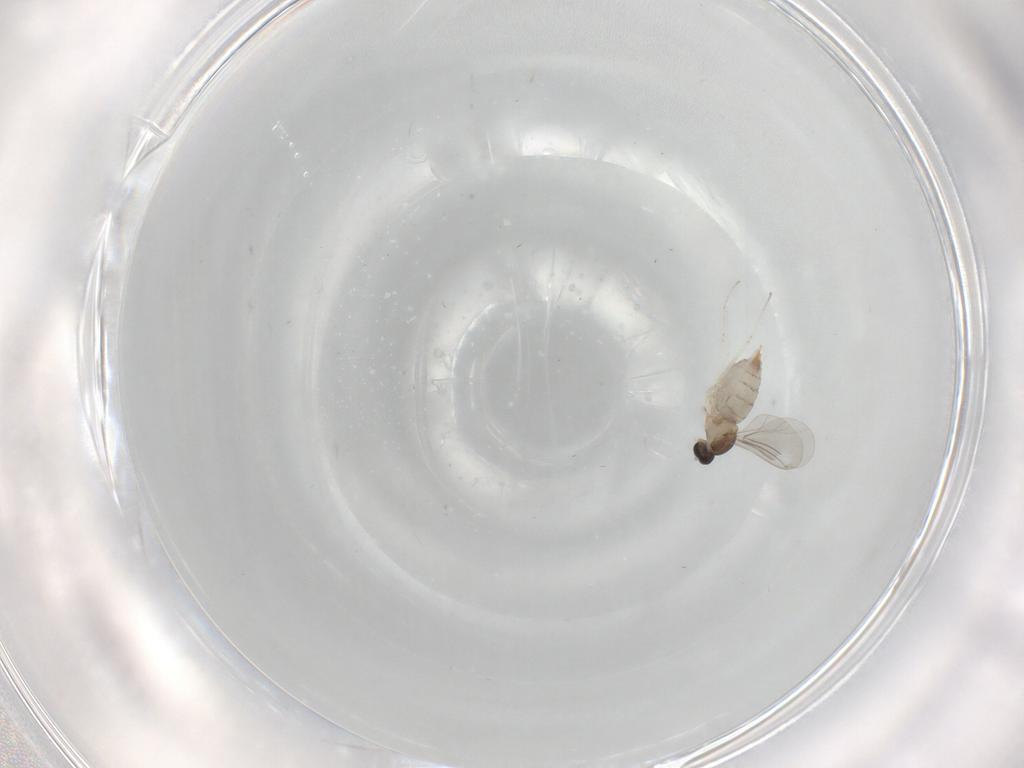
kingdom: Animalia
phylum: Arthropoda
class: Insecta
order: Diptera
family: Cecidomyiidae
